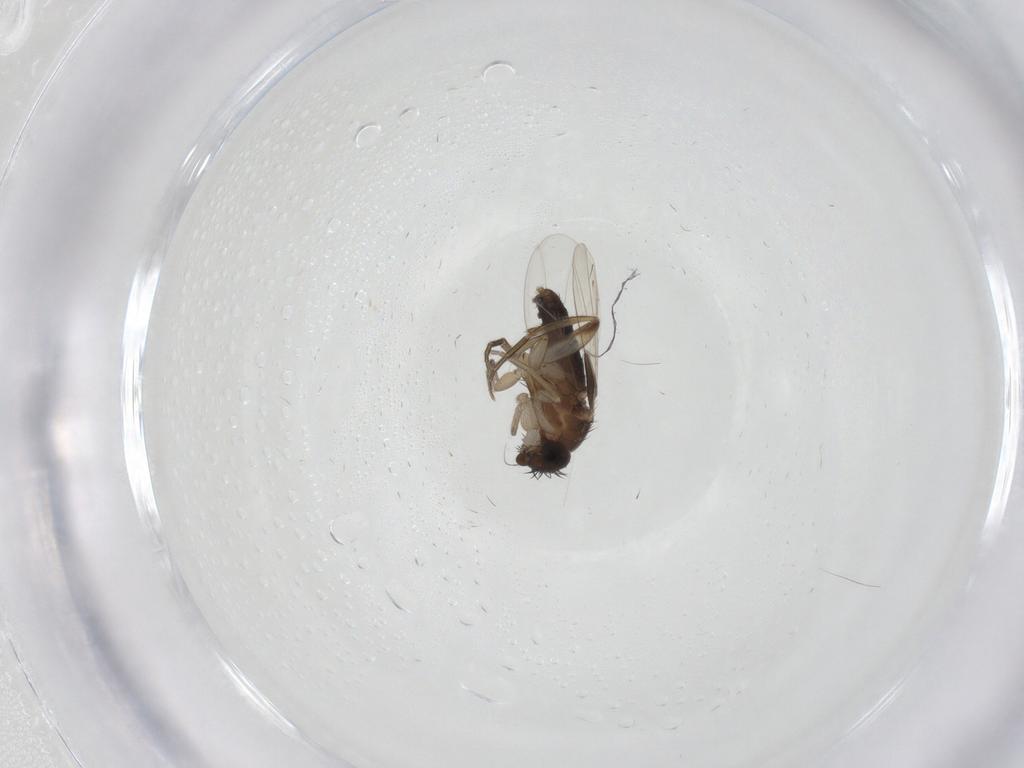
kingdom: Animalia
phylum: Arthropoda
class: Insecta
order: Diptera
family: Phoridae
